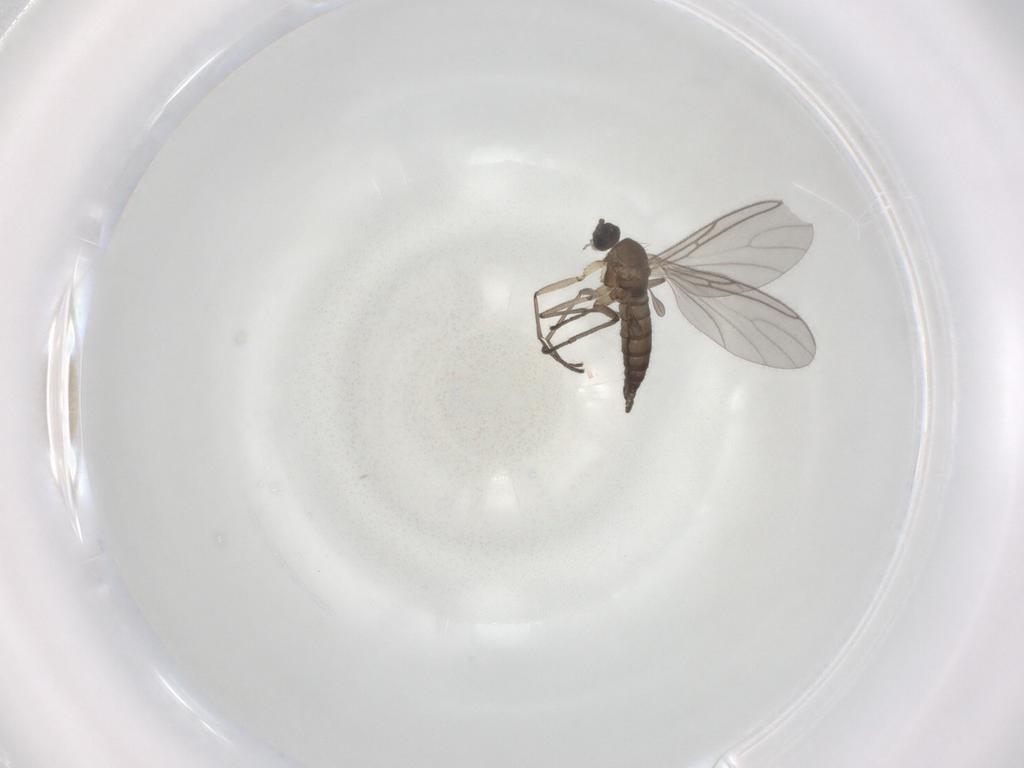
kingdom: Animalia
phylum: Arthropoda
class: Insecta
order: Diptera
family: Sciaridae
